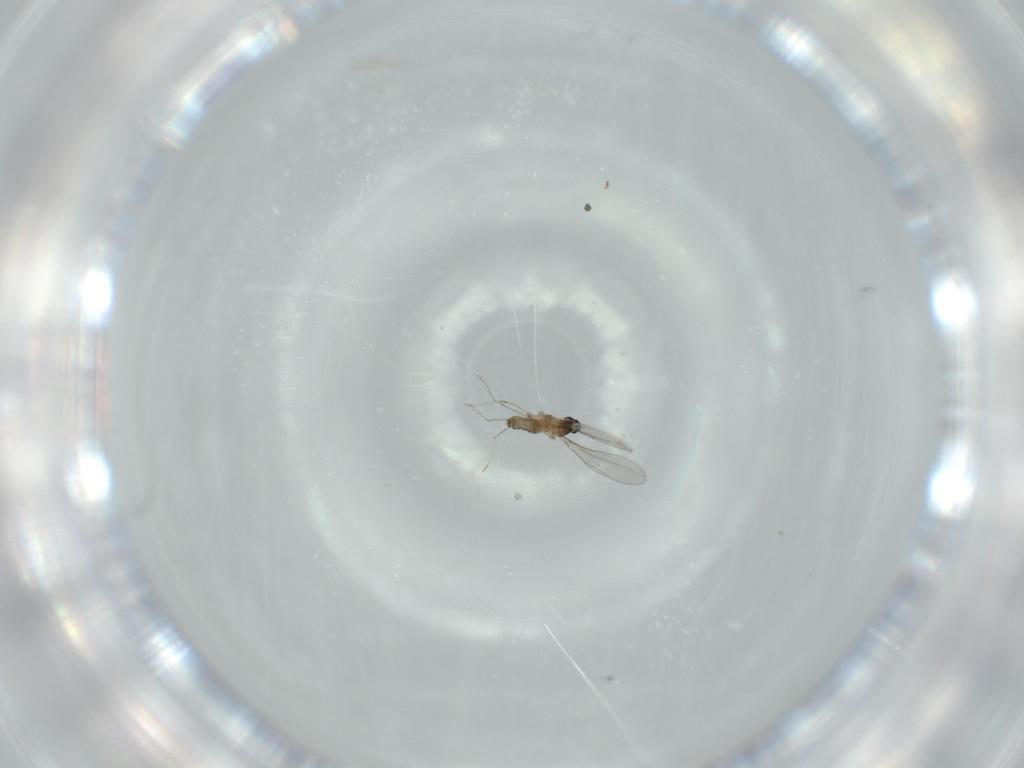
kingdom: Animalia
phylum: Arthropoda
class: Insecta
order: Diptera
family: Cecidomyiidae
